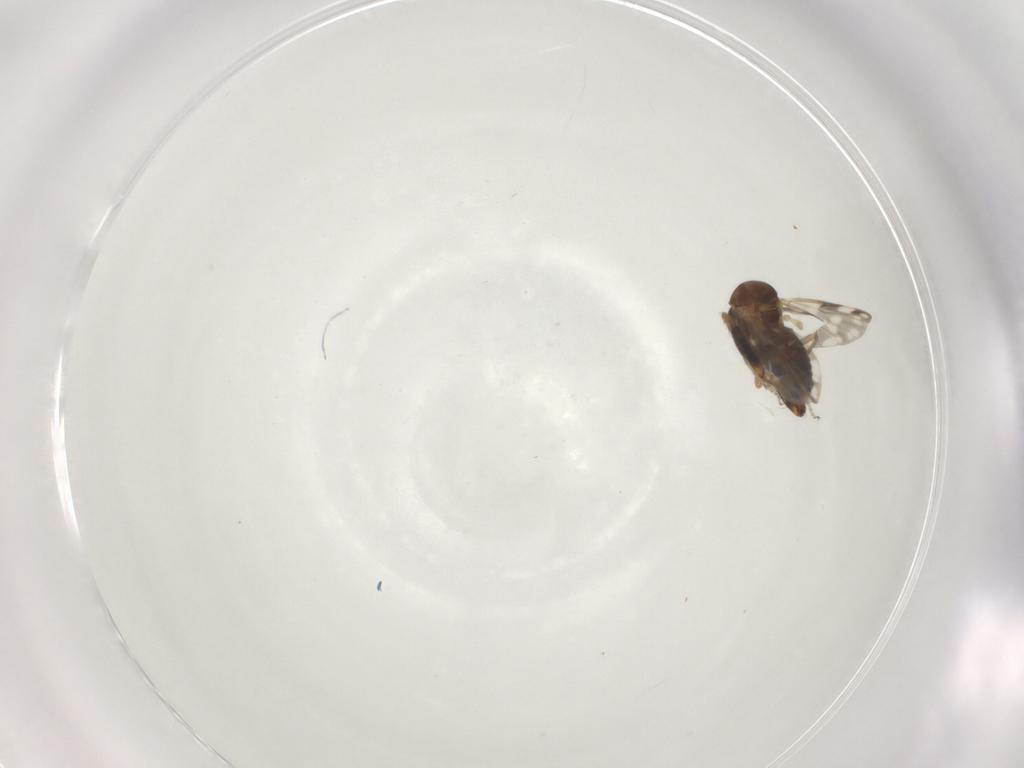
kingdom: Animalia
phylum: Arthropoda
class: Insecta
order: Diptera
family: Ceratopogonidae
